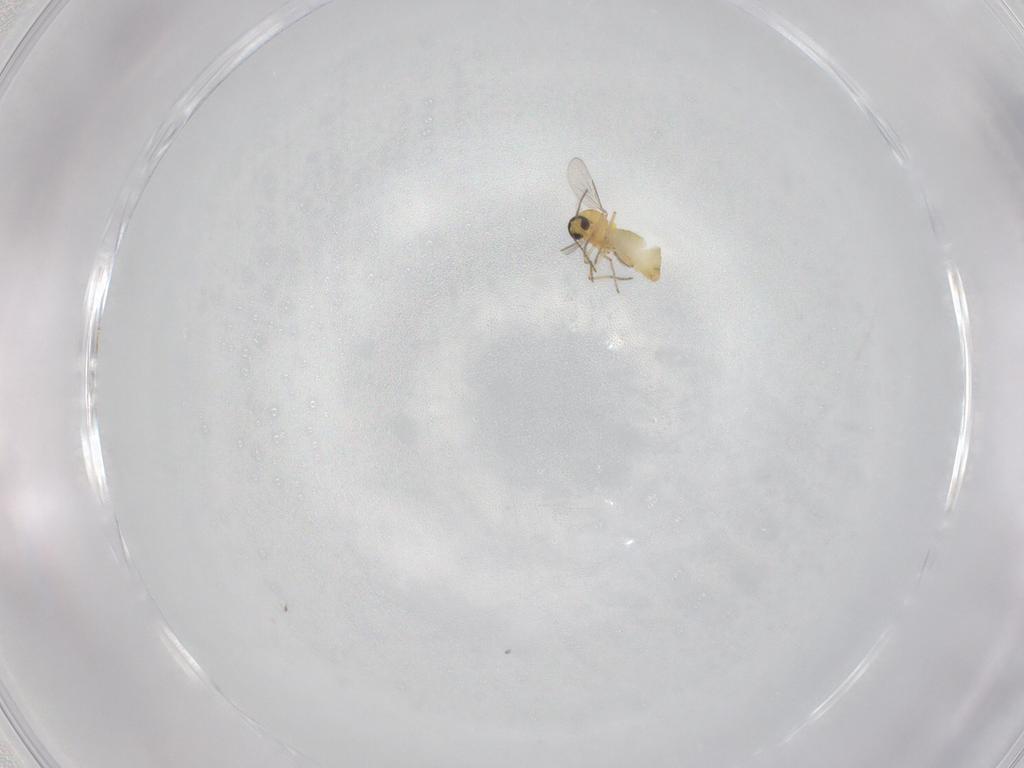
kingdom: Animalia
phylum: Arthropoda
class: Insecta
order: Diptera
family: Ceratopogonidae
